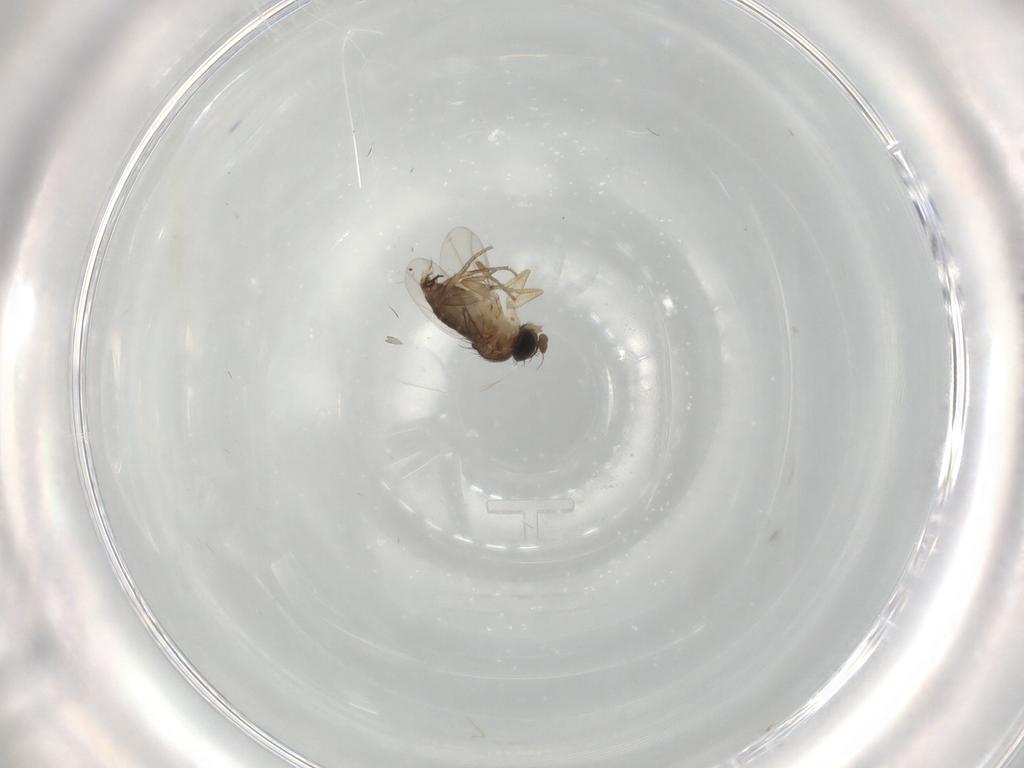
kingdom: Animalia
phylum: Arthropoda
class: Insecta
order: Diptera
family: Phoridae
